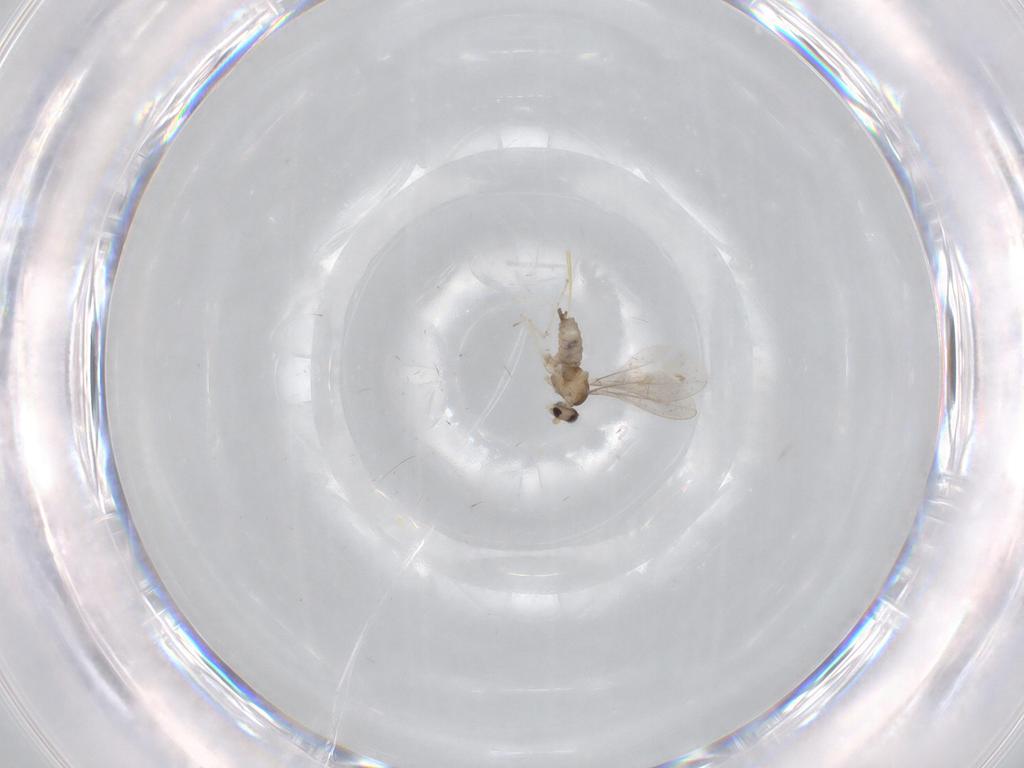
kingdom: Animalia
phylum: Arthropoda
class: Insecta
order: Diptera
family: Cecidomyiidae
